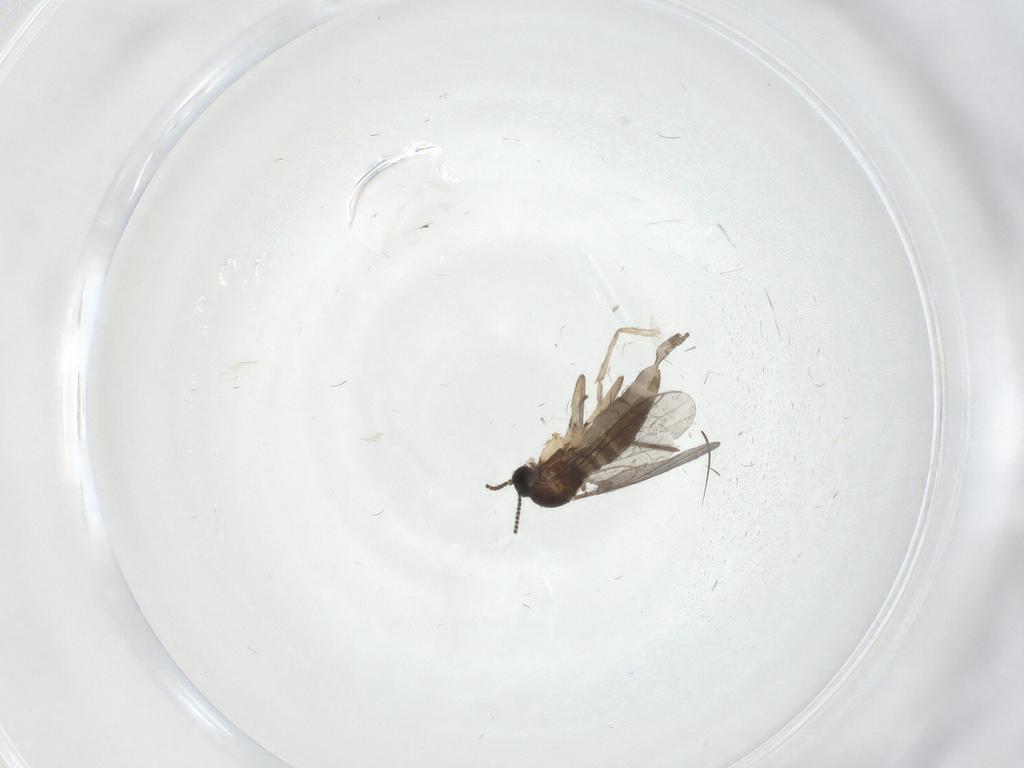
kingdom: Animalia
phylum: Arthropoda
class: Insecta
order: Diptera
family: Sciaridae
